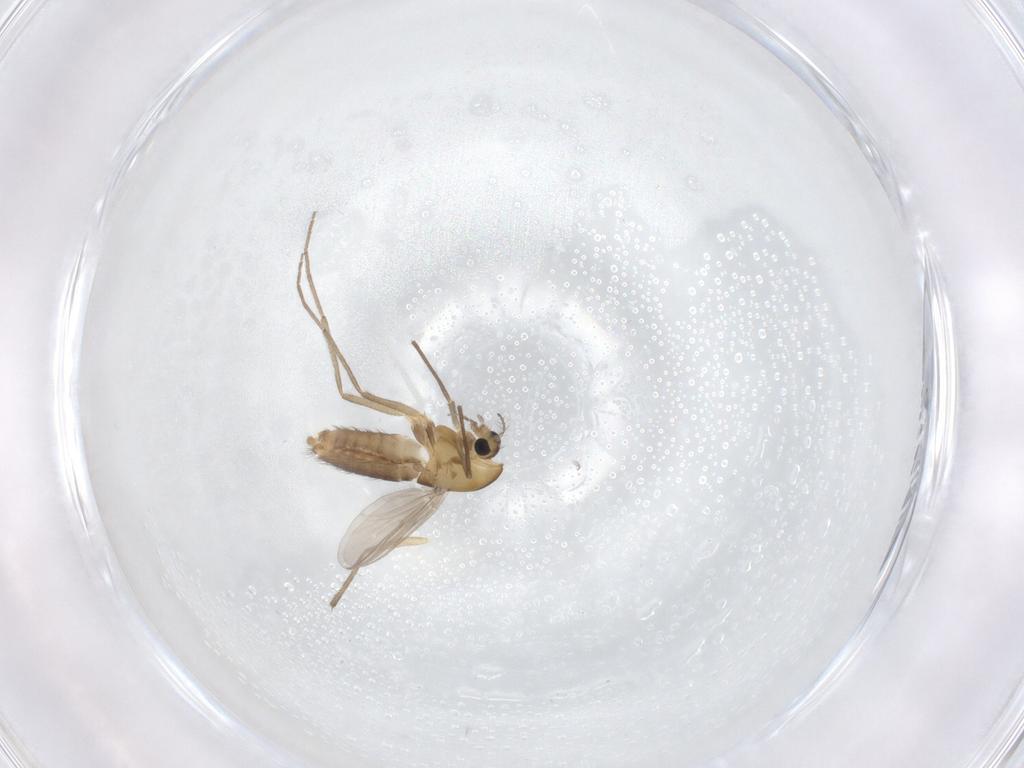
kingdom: Animalia
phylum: Arthropoda
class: Insecta
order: Diptera
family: Chironomidae
